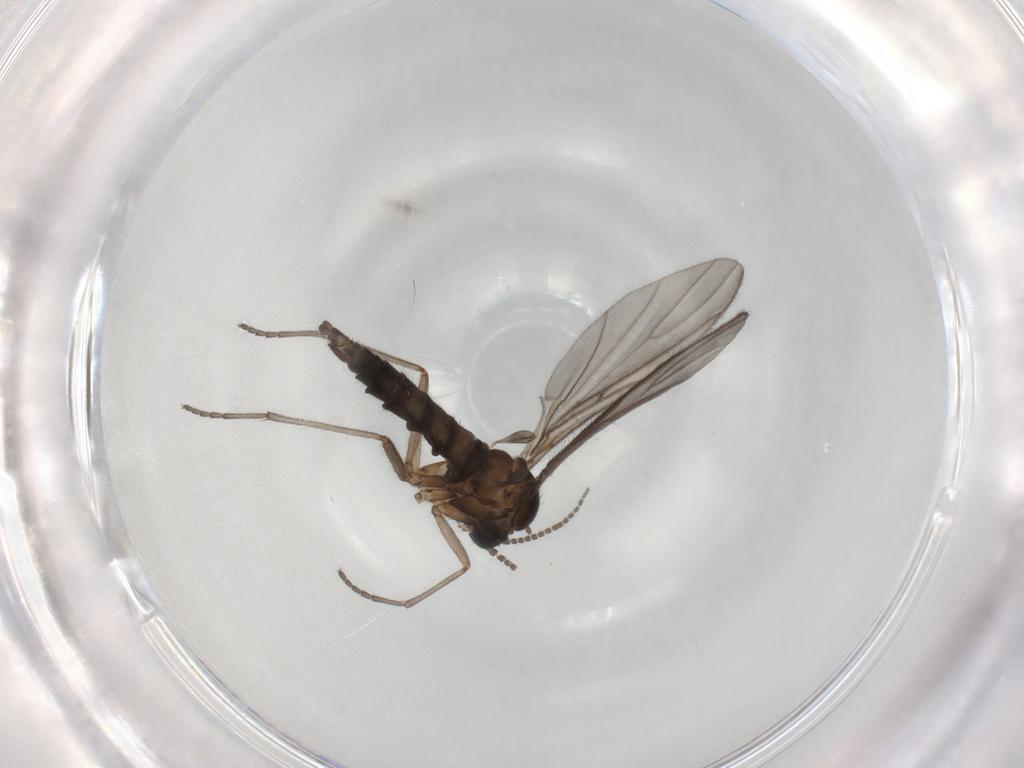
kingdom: Animalia
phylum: Arthropoda
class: Insecta
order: Diptera
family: Sciaridae
